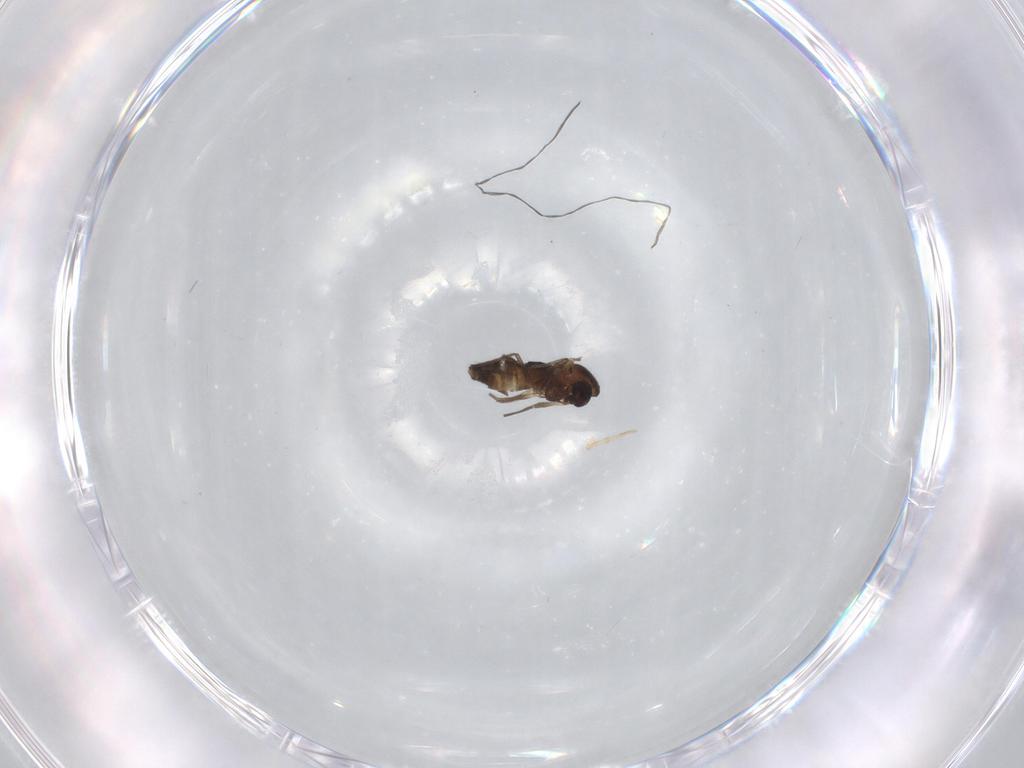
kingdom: Animalia
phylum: Arthropoda
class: Insecta
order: Diptera
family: Chironomidae
